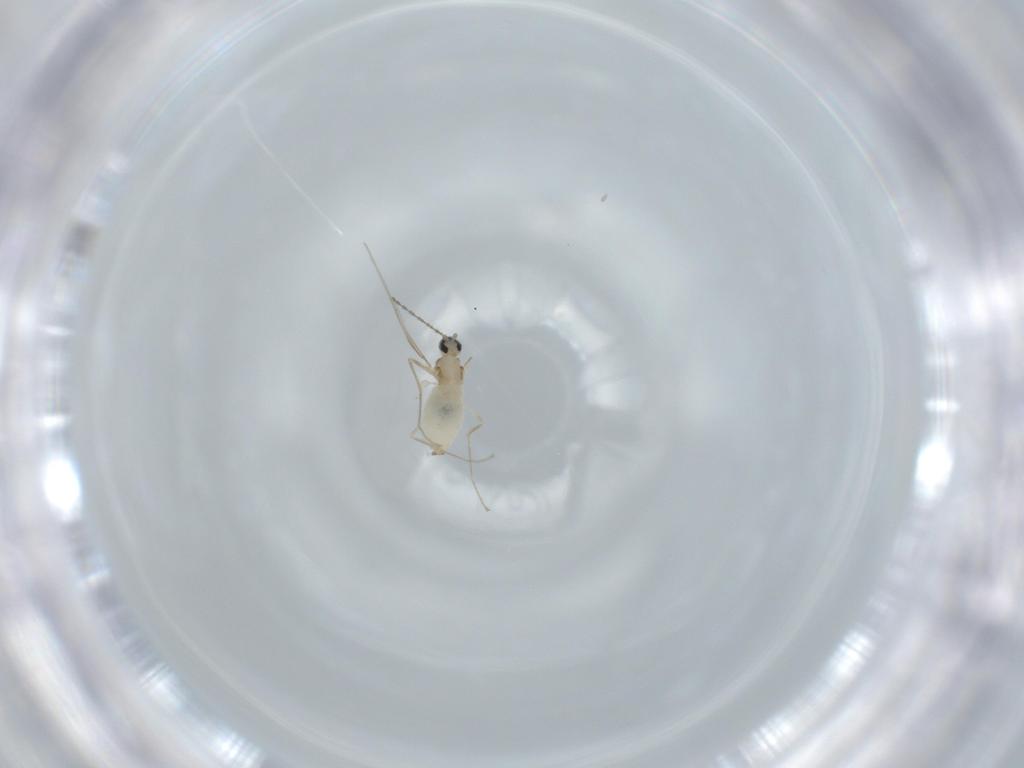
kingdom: Animalia
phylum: Arthropoda
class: Insecta
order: Diptera
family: Cecidomyiidae
